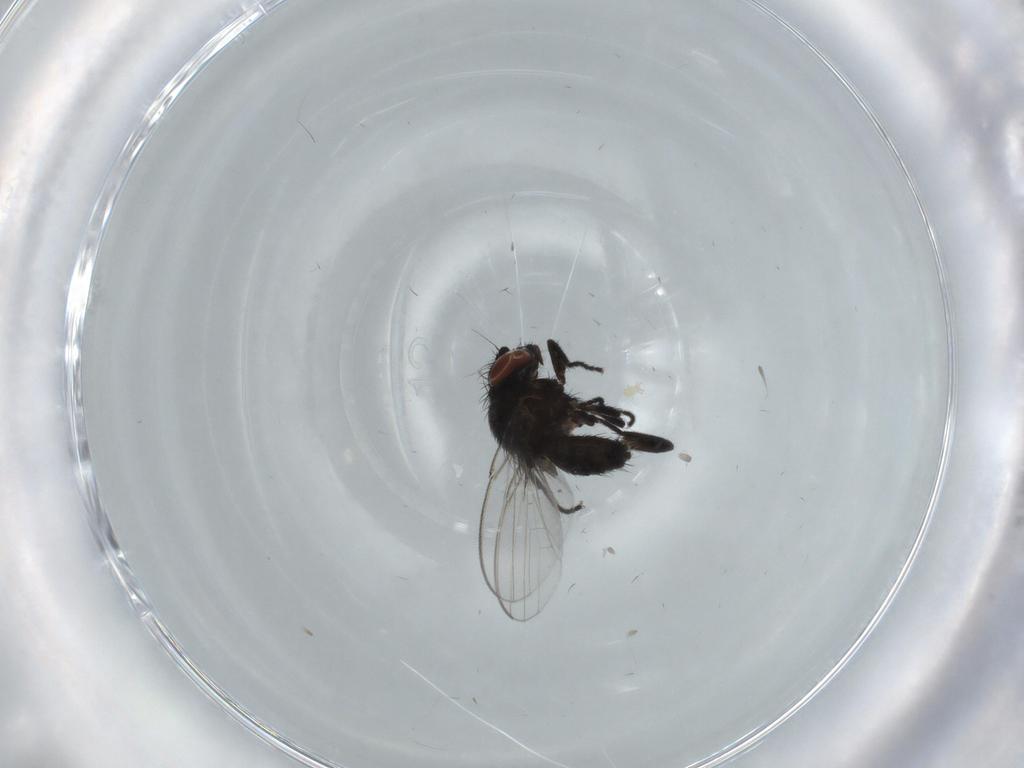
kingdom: Animalia
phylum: Arthropoda
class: Insecta
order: Diptera
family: Milichiidae
